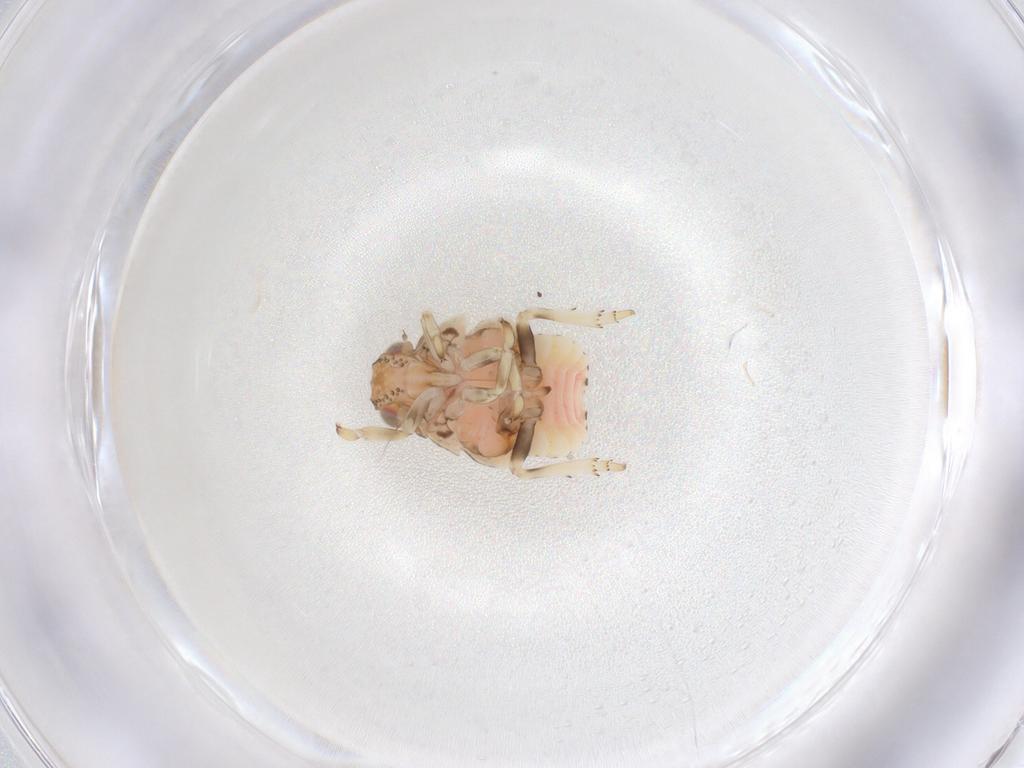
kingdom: Animalia
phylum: Arthropoda
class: Insecta
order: Hemiptera
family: Nogodinidae
